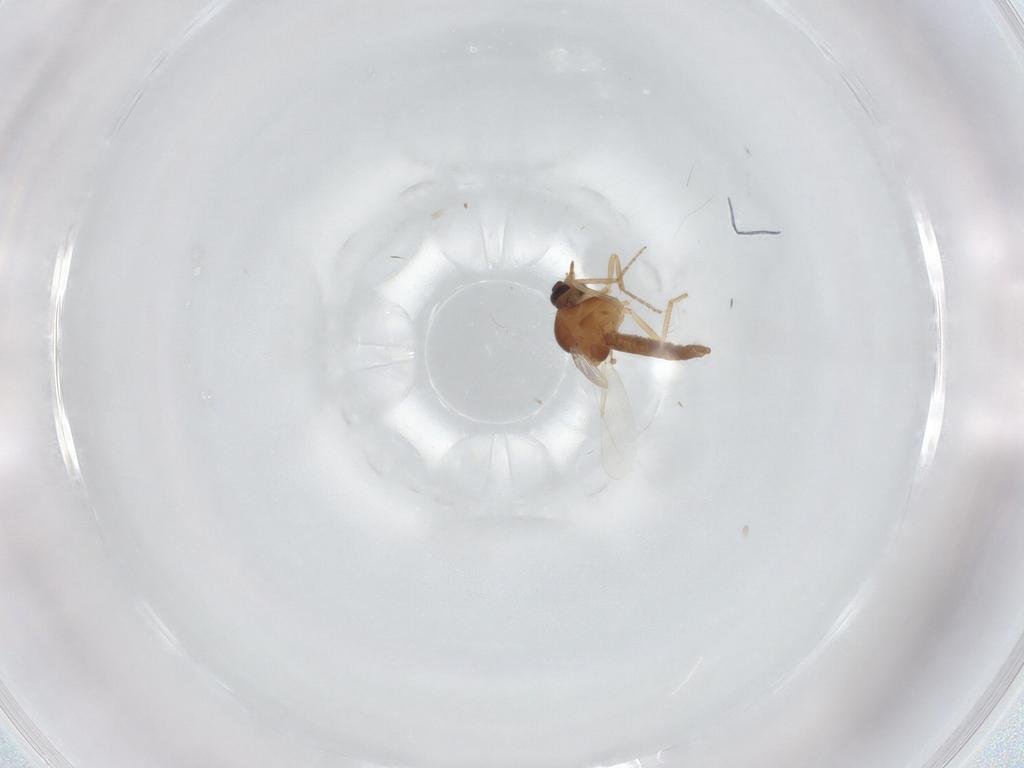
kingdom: Animalia
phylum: Arthropoda
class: Insecta
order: Diptera
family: Ceratopogonidae
